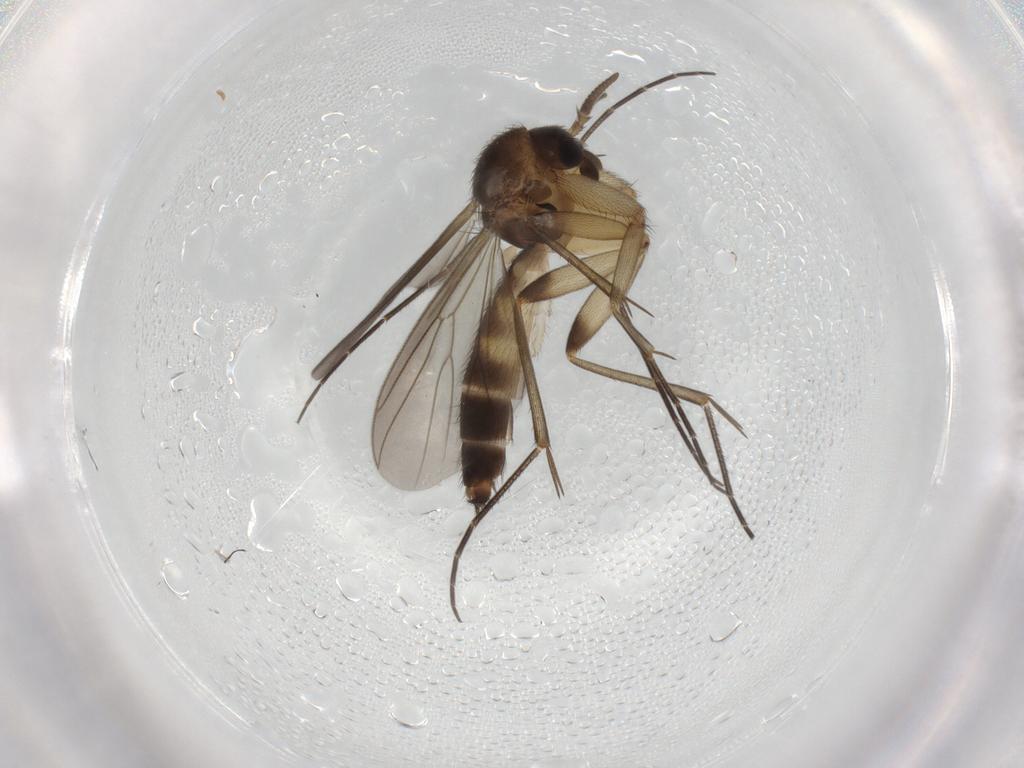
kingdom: Animalia
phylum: Arthropoda
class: Insecta
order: Diptera
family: Mycetophilidae
